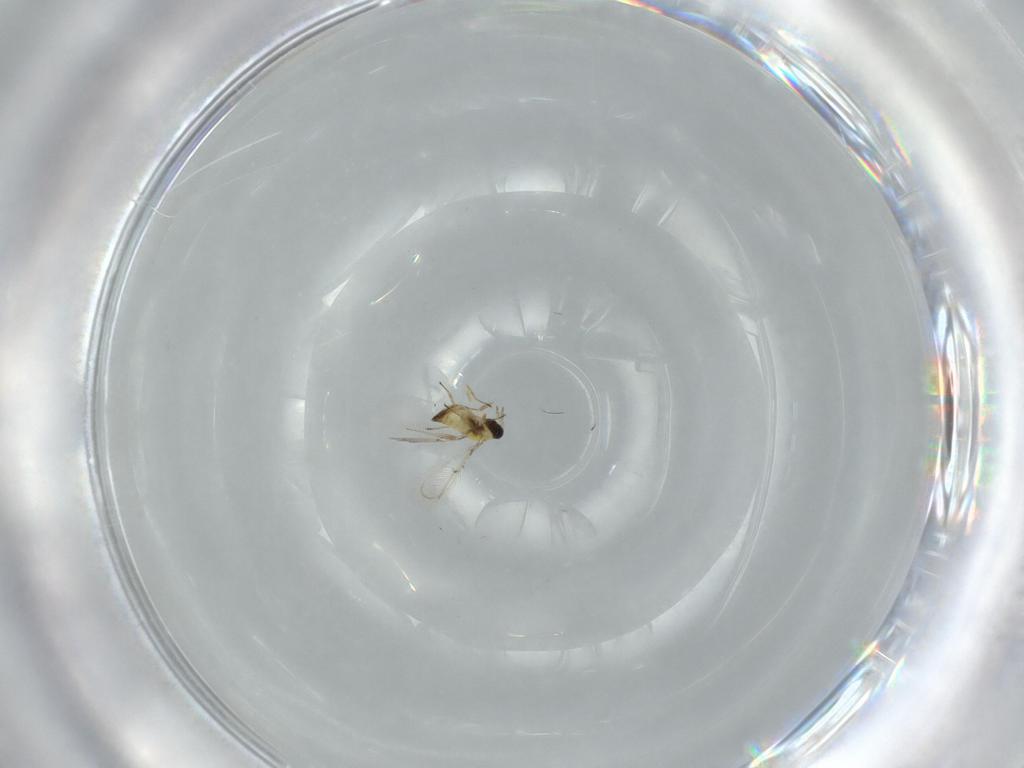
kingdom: Animalia
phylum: Arthropoda
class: Insecta
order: Hymenoptera
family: Trichogrammatidae
